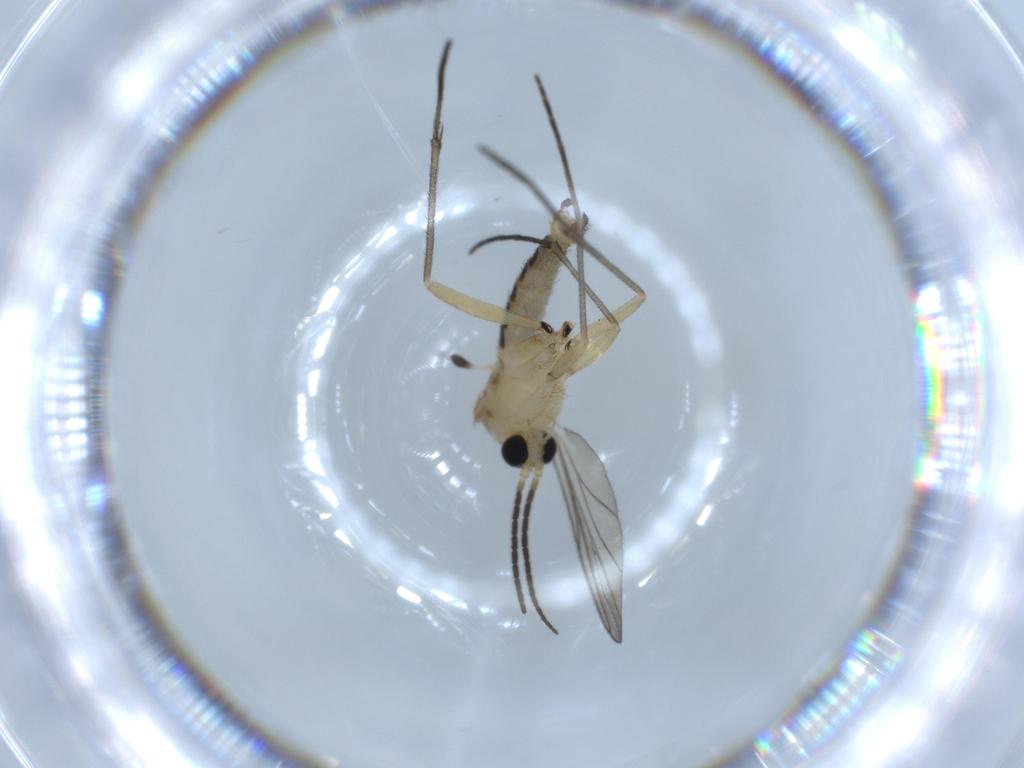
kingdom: Animalia
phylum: Arthropoda
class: Insecta
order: Diptera
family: Sciaridae
